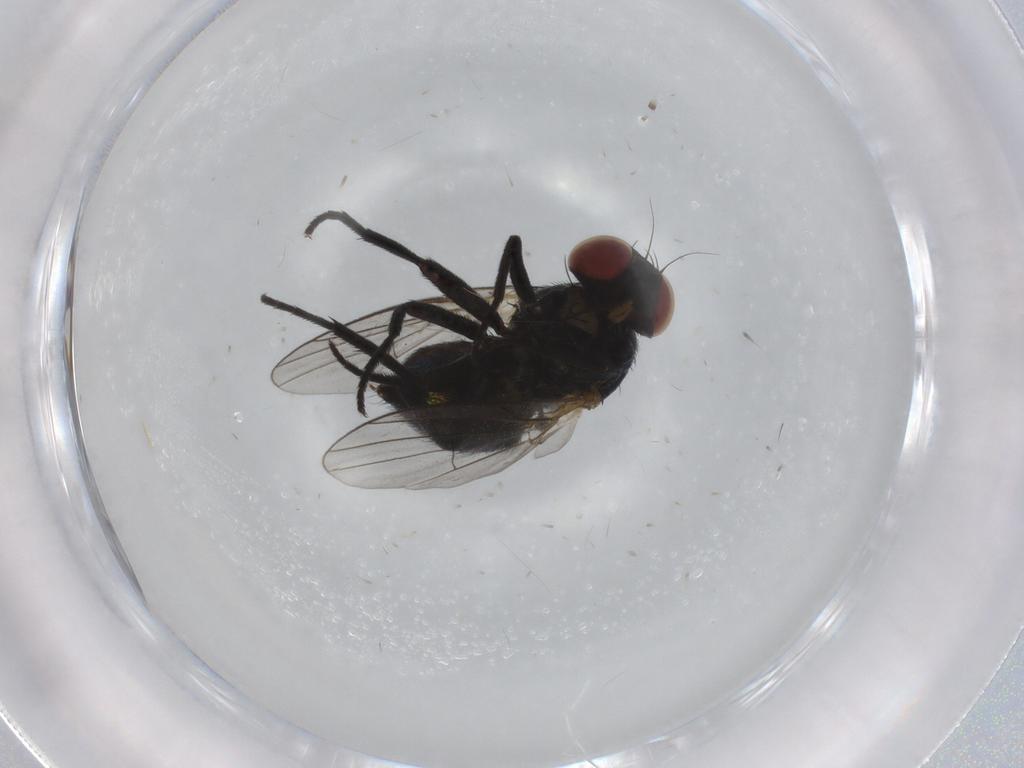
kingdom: Animalia
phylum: Arthropoda
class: Insecta
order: Diptera
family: Agromyzidae
